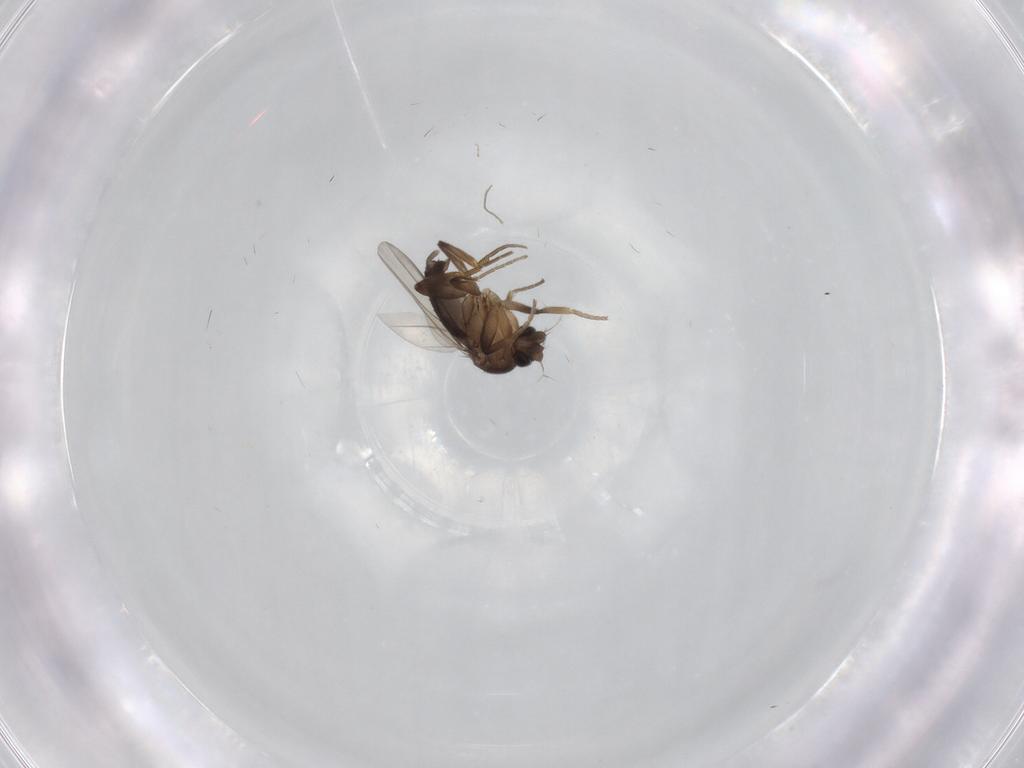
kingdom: Animalia
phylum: Arthropoda
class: Insecta
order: Diptera
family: Phoridae
